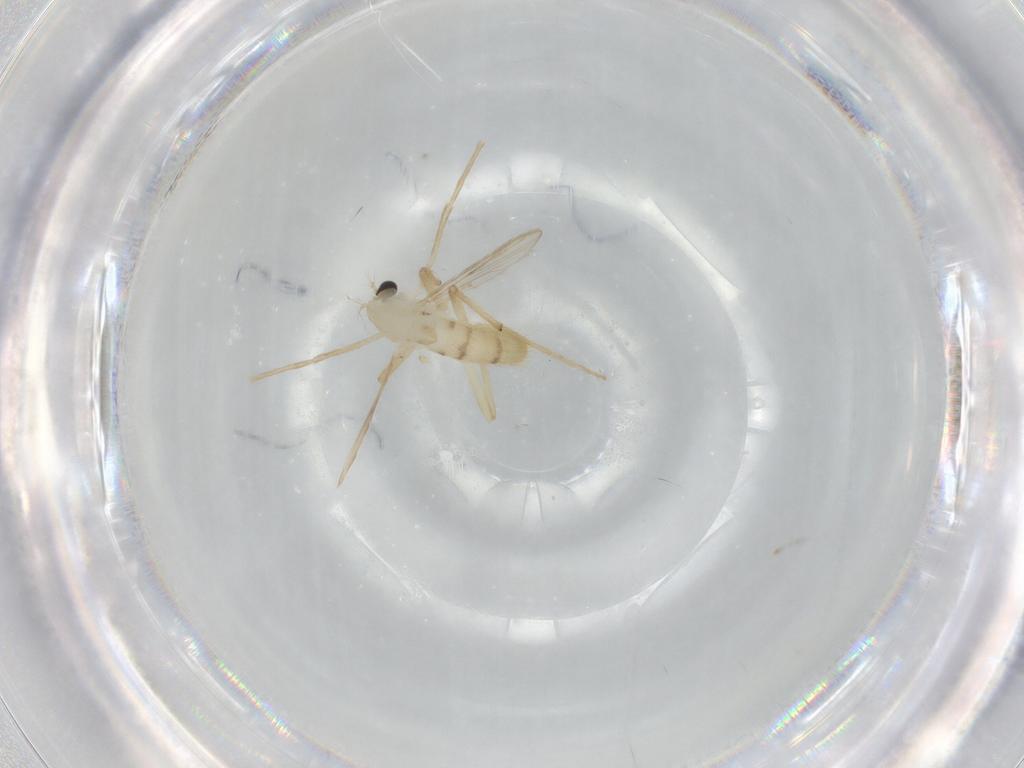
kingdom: Animalia
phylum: Arthropoda
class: Insecta
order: Diptera
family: Chironomidae
